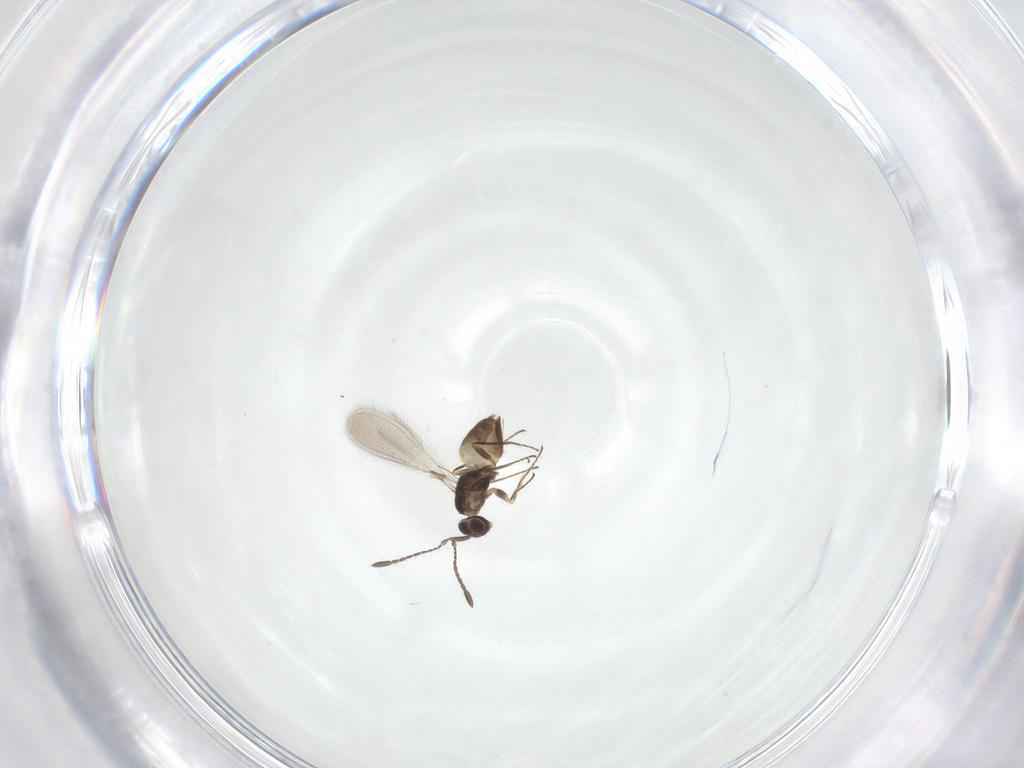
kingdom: Animalia
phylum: Arthropoda
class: Insecta
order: Hymenoptera
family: Mymaridae
